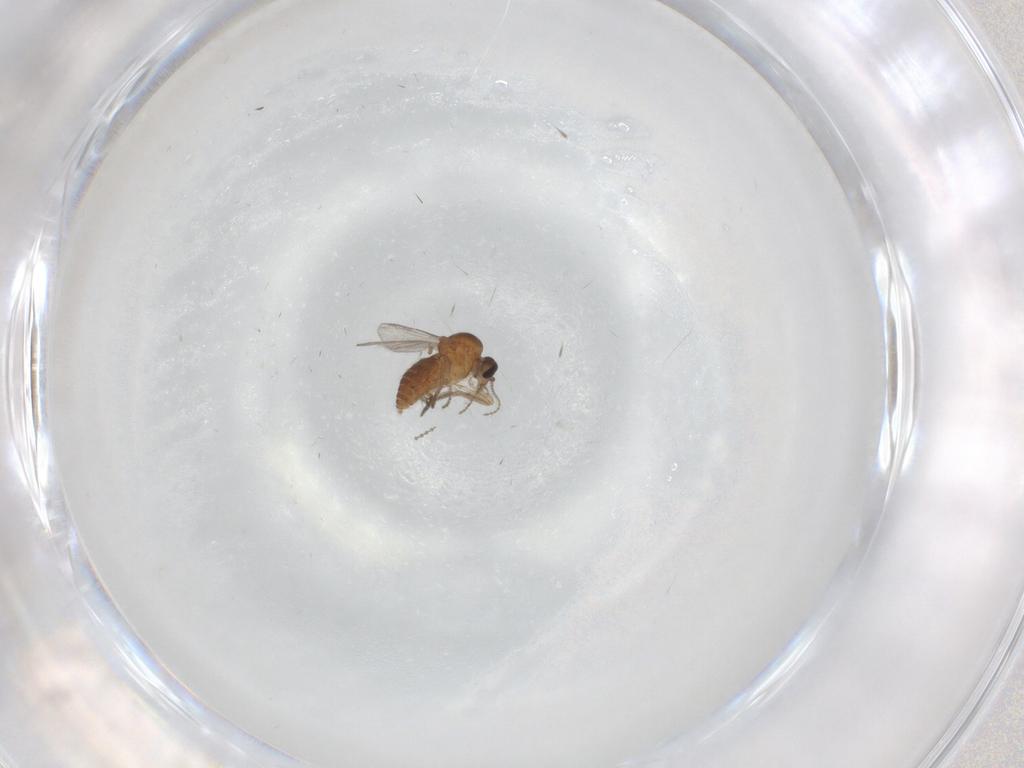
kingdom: Animalia
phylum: Arthropoda
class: Insecta
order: Diptera
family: Ceratopogonidae
